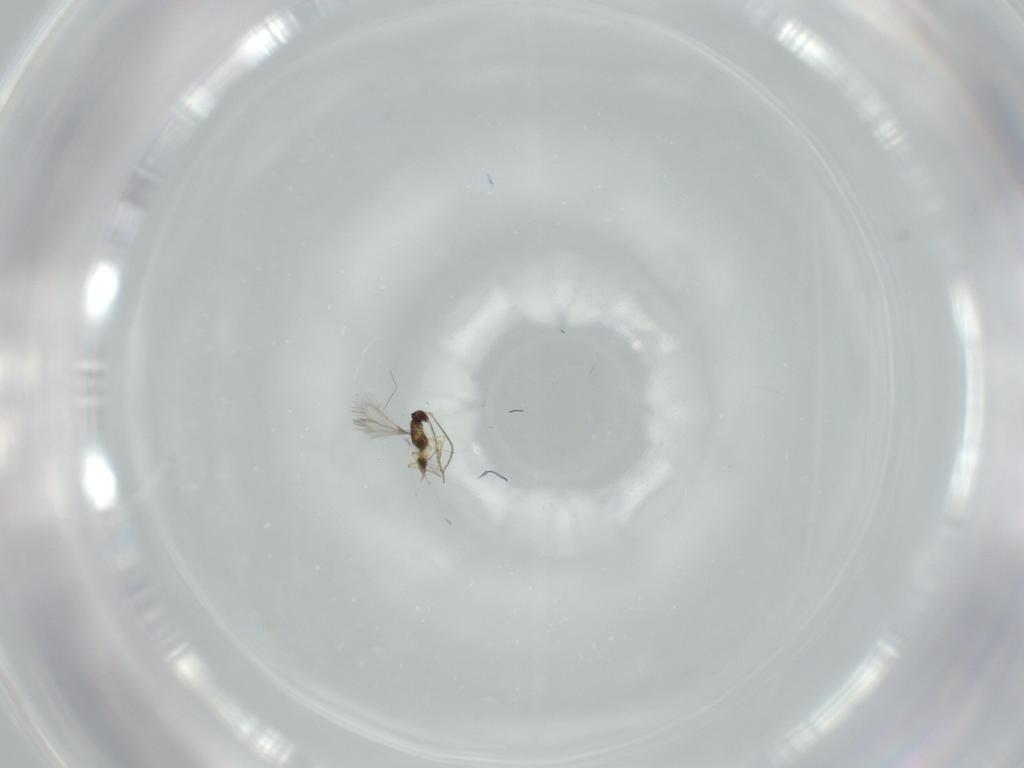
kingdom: Animalia
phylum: Arthropoda
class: Insecta
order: Hymenoptera
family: Mymaridae
